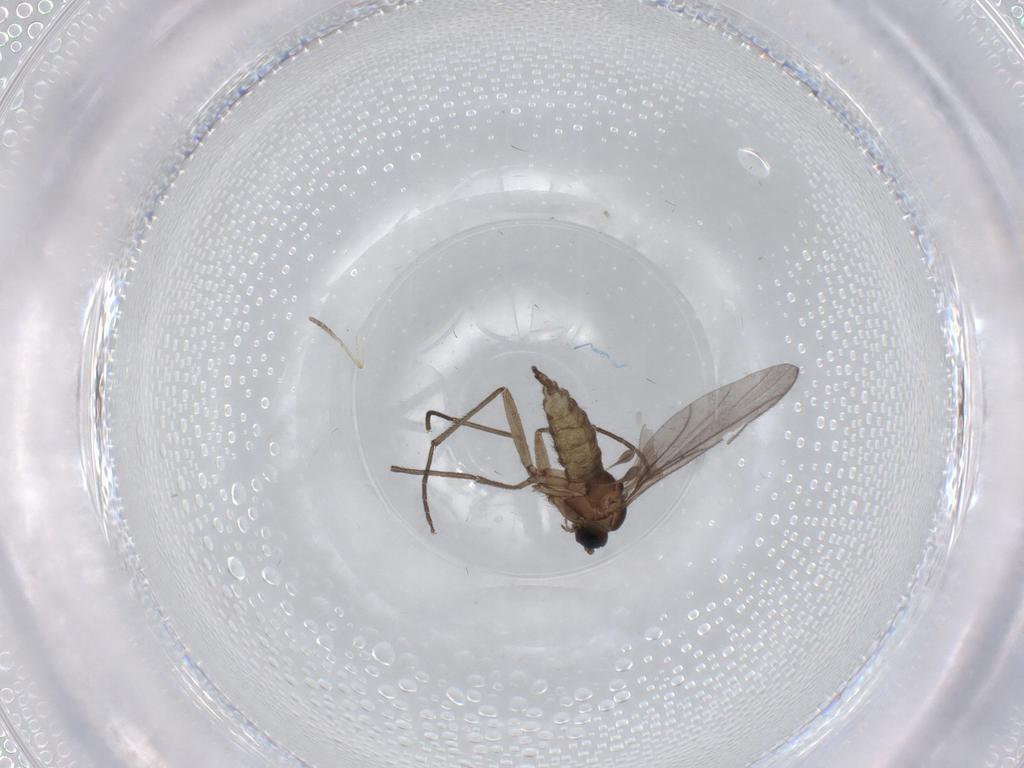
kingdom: Animalia
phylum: Arthropoda
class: Insecta
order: Diptera
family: Sciaridae
